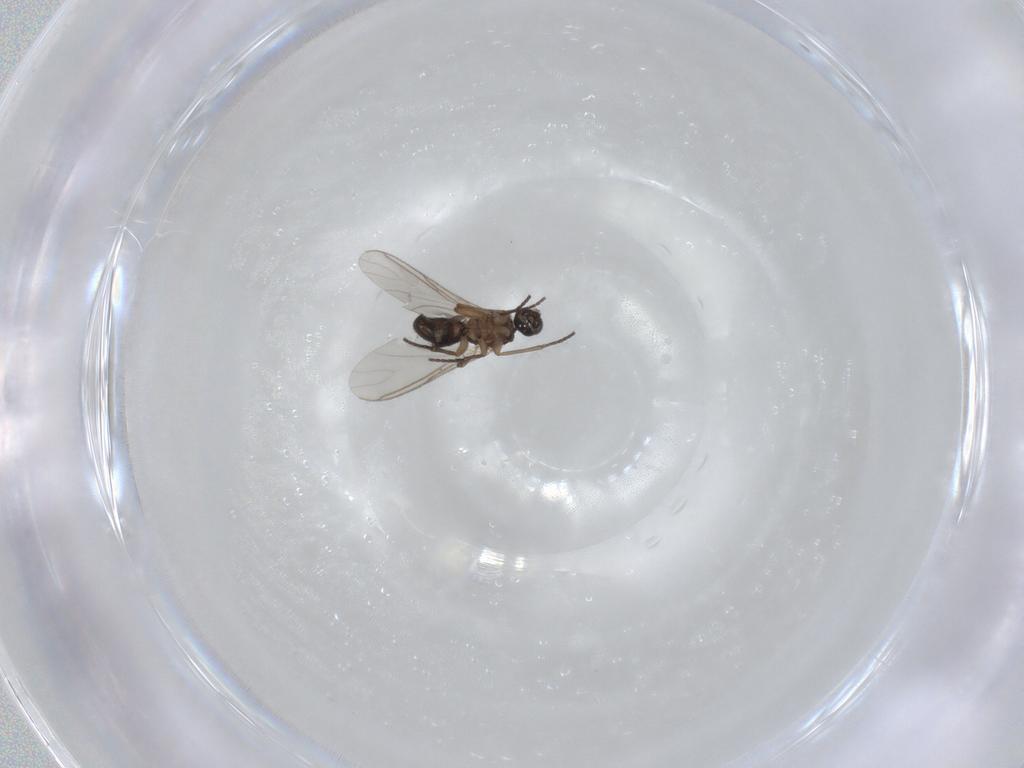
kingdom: Animalia
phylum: Arthropoda
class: Insecta
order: Diptera
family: Sciaridae
